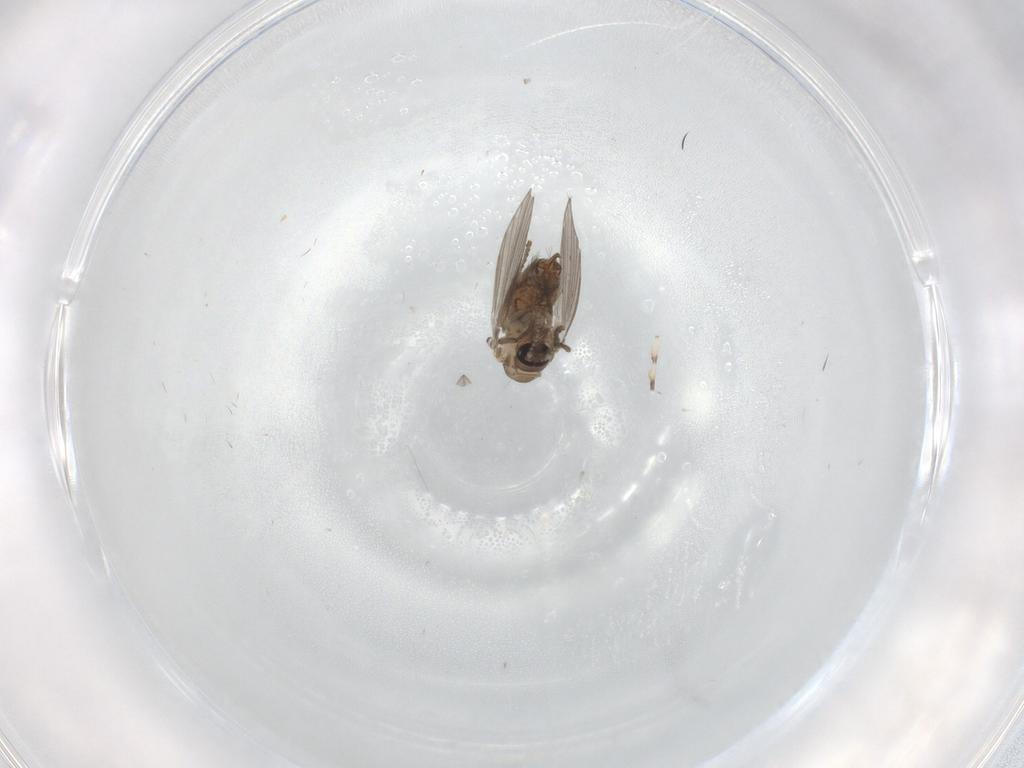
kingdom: Animalia
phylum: Arthropoda
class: Insecta
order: Diptera
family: Psychodidae
